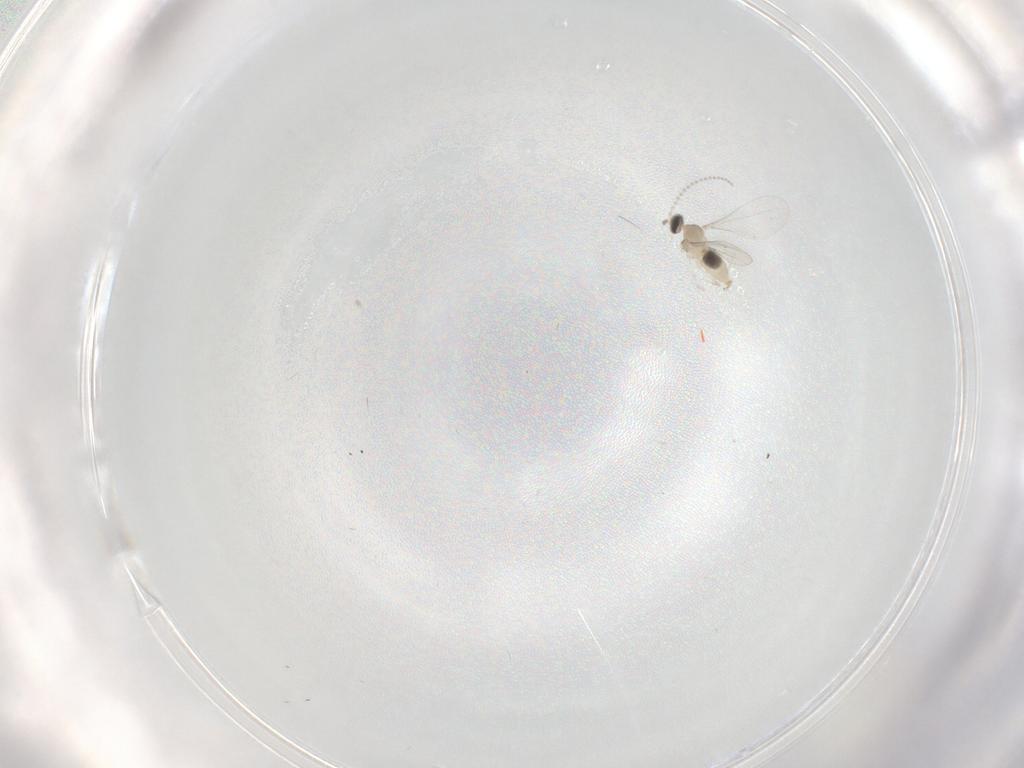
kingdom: Animalia
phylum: Arthropoda
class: Insecta
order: Diptera
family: Cecidomyiidae
